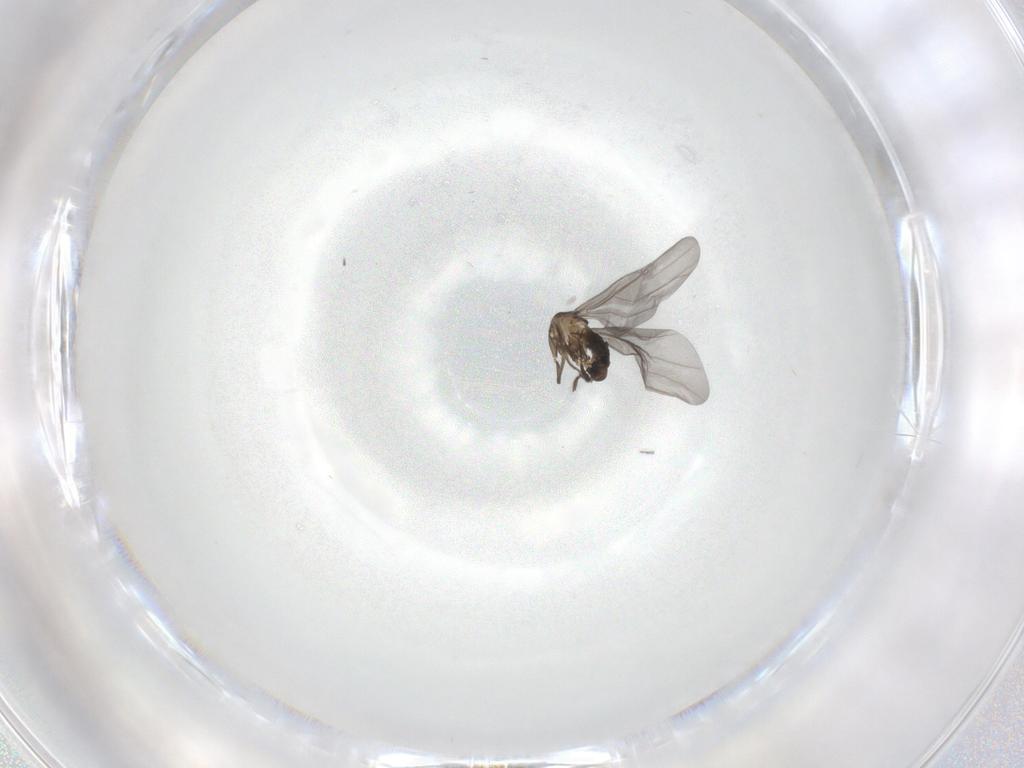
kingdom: Animalia
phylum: Arthropoda
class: Insecta
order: Diptera
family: Phoridae
